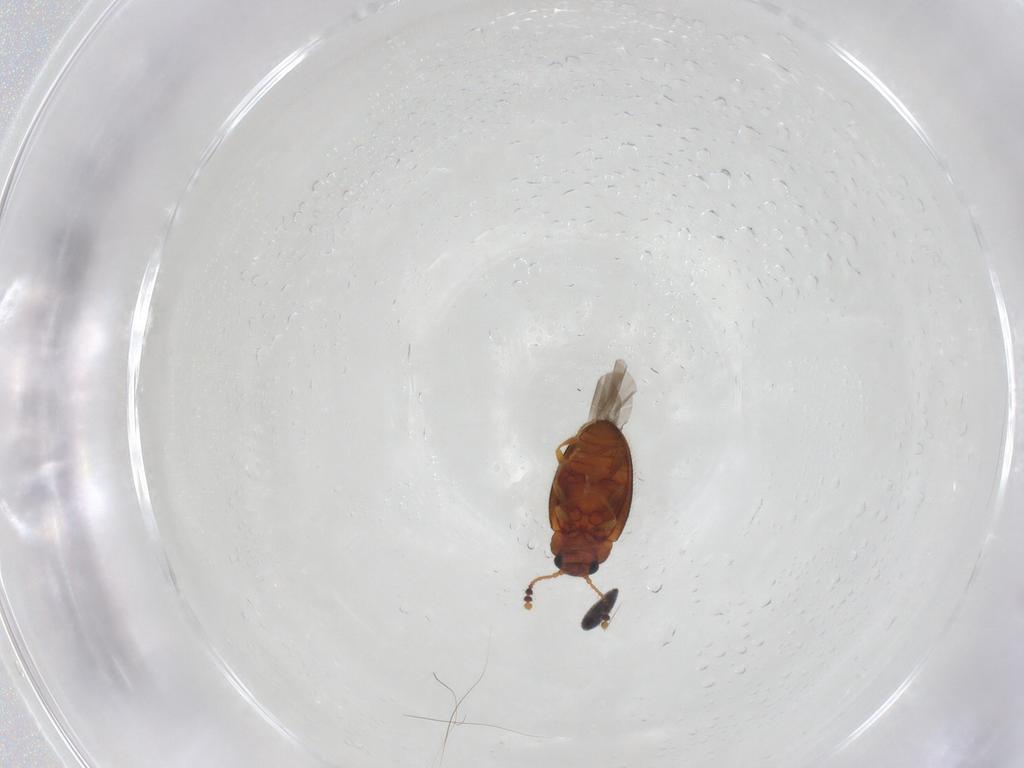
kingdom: Animalia
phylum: Arthropoda
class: Insecta
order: Coleoptera
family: Erotylidae
